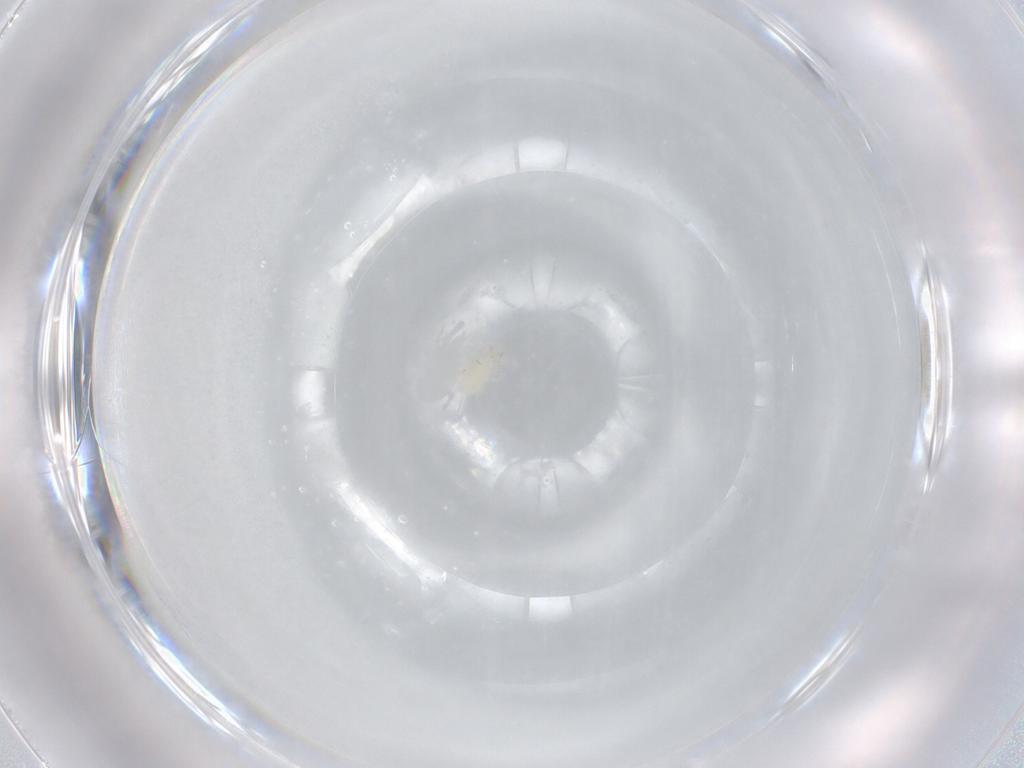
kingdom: Animalia
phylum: Arthropoda
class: Arachnida
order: Mesostigmata
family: Phytoseiidae
